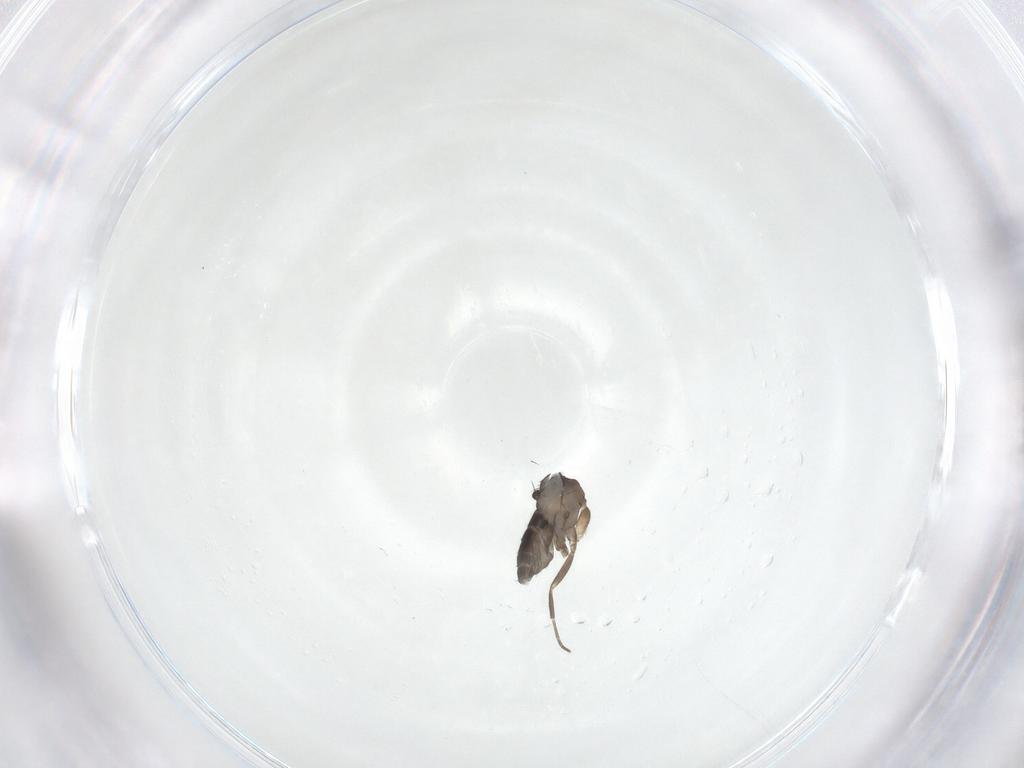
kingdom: Animalia
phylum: Arthropoda
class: Insecta
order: Diptera
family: Phoridae
